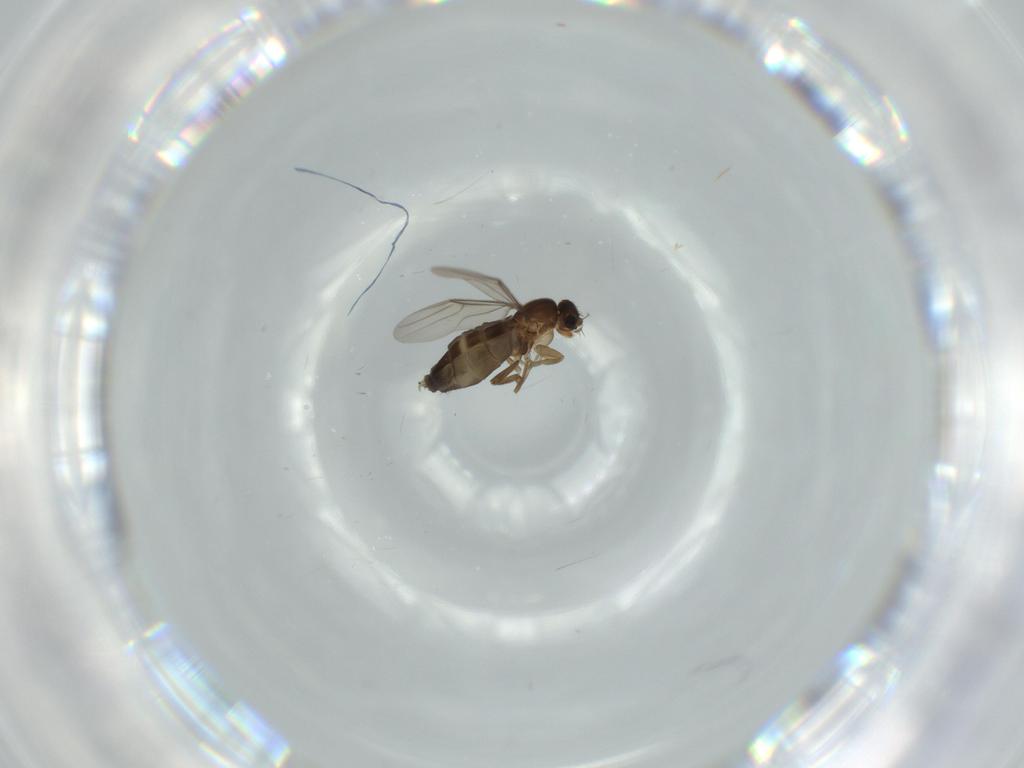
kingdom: Animalia
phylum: Arthropoda
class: Insecta
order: Diptera
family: Phoridae
